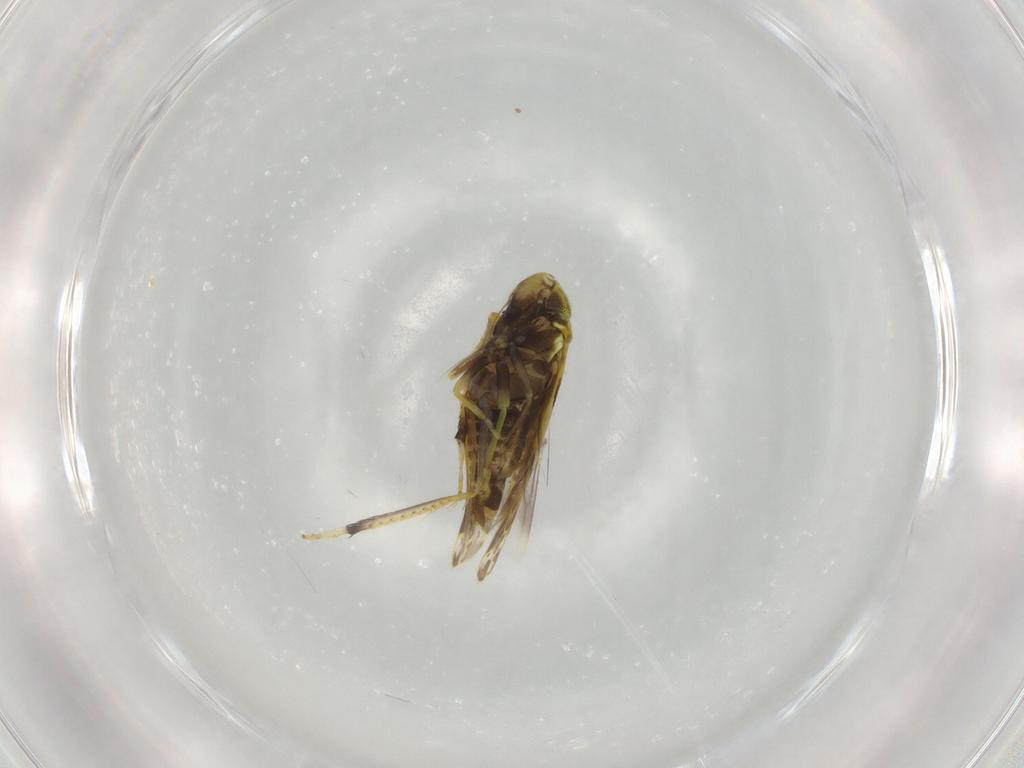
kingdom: Animalia
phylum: Arthropoda
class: Insecta
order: Hemiptera
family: Cicadellidae
